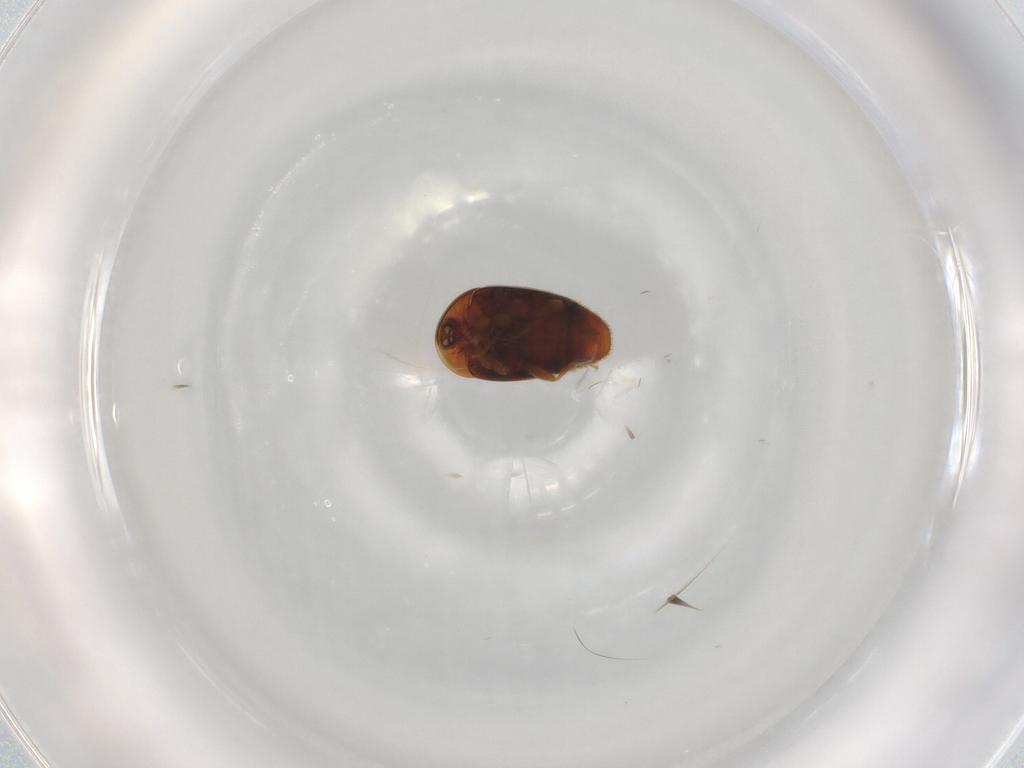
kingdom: Animalia
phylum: Arthropoda
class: Insecta
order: Coleoptera
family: Corylophidae
